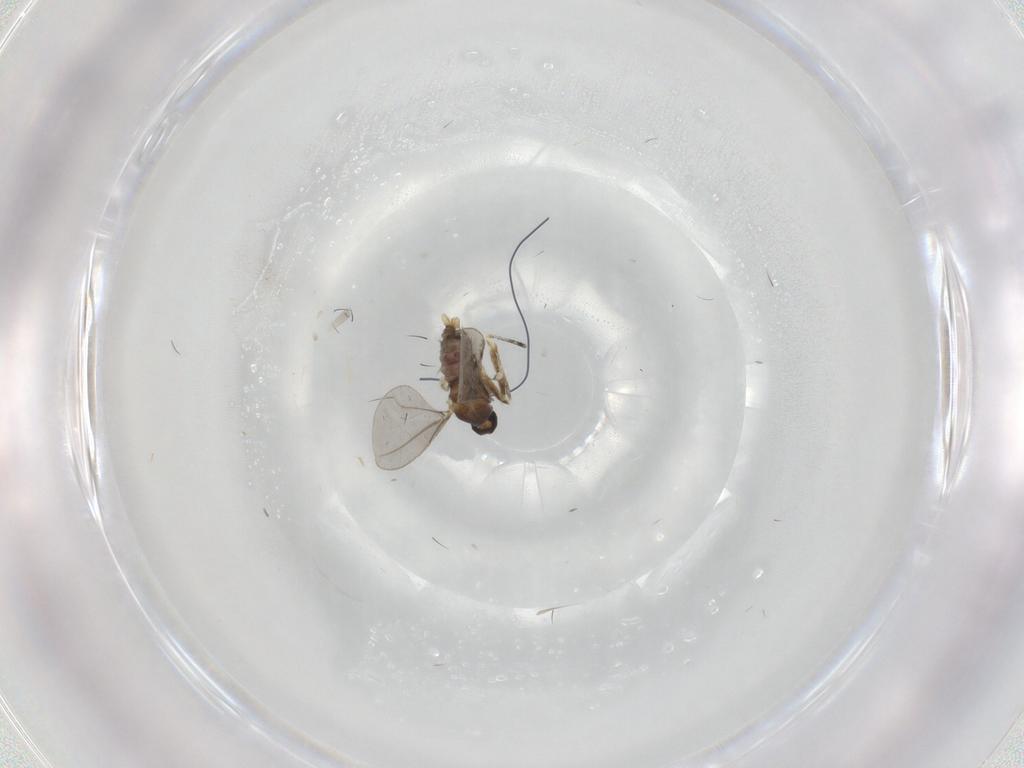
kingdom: Animalia
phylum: Arthropoda
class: Insecta
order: Diptera
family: Cecidomyiidae
